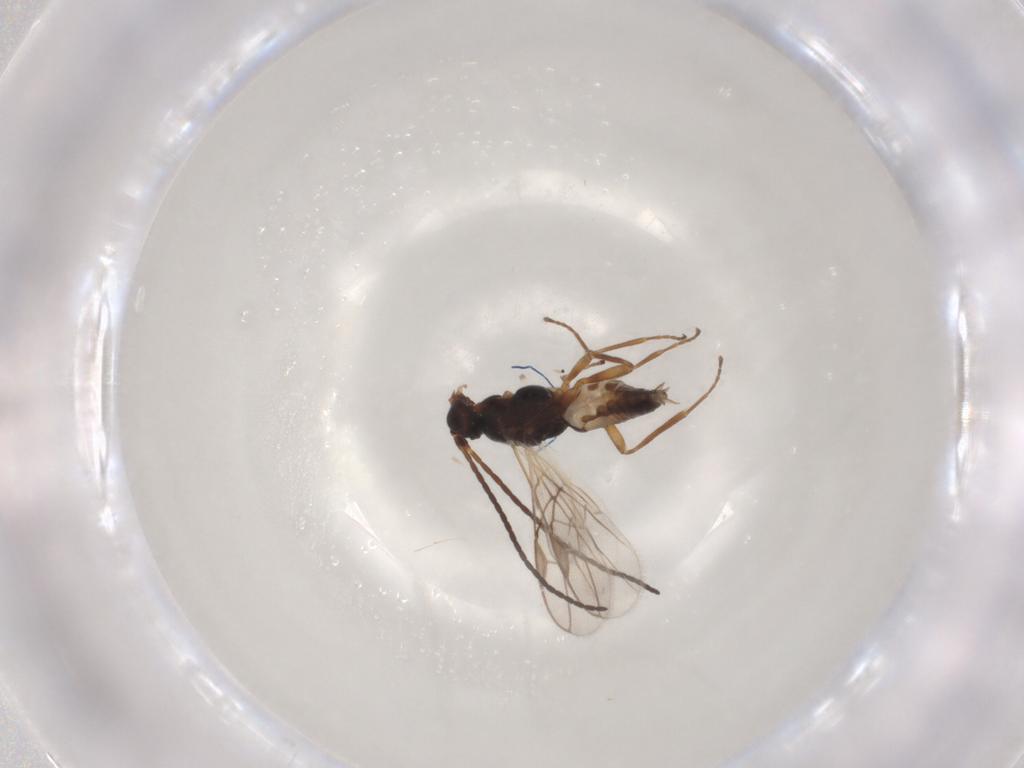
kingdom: Animalia
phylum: Arthropoda
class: Insecta
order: Hymenoptera
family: Braconidae
